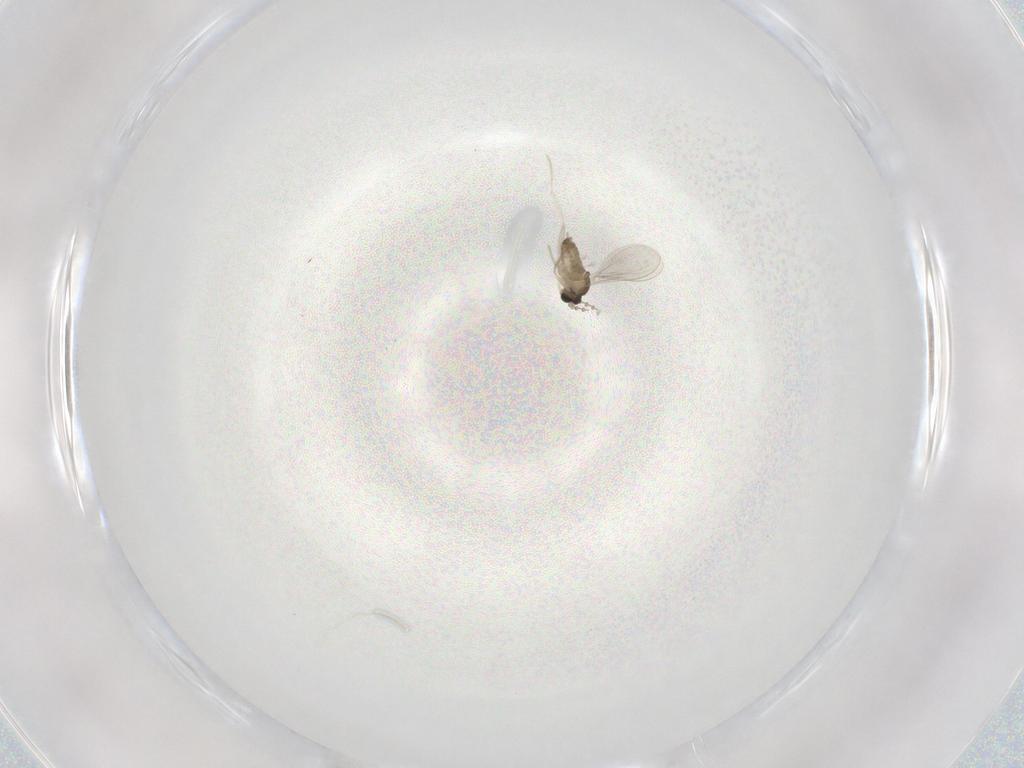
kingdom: Animalia
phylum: Arthropoda
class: Insecta
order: Diptera
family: Cecidomyiidae
